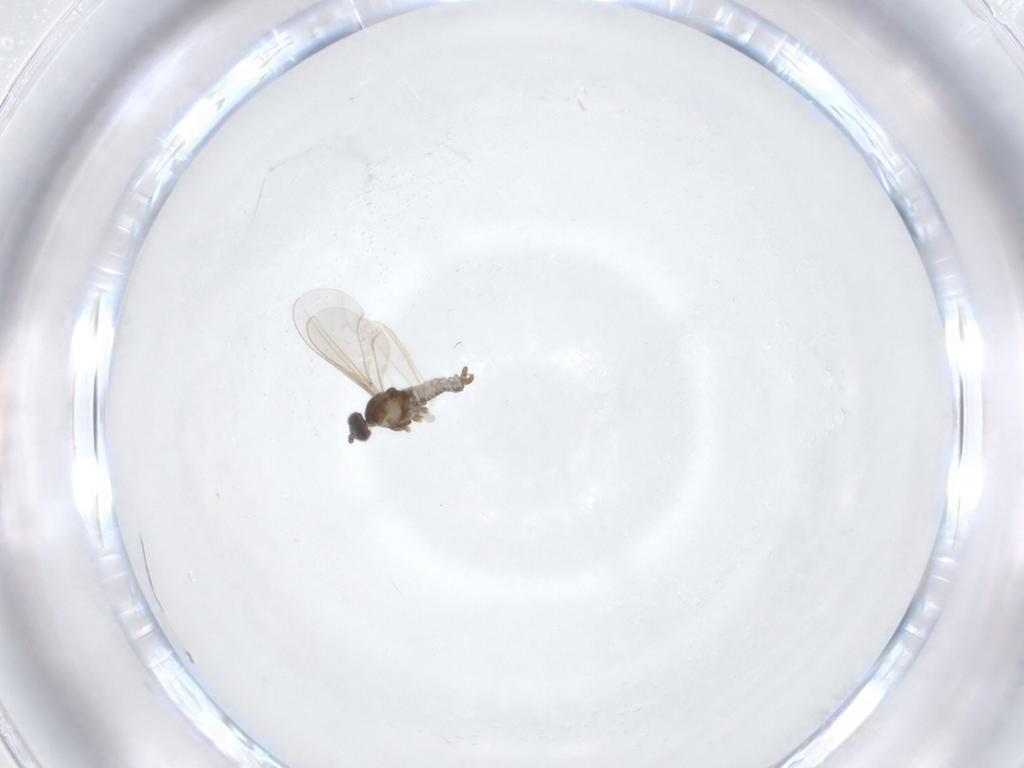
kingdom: Animalia
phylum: Arthropoda
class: Insecta
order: Diptera
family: Cecidomyiidae
